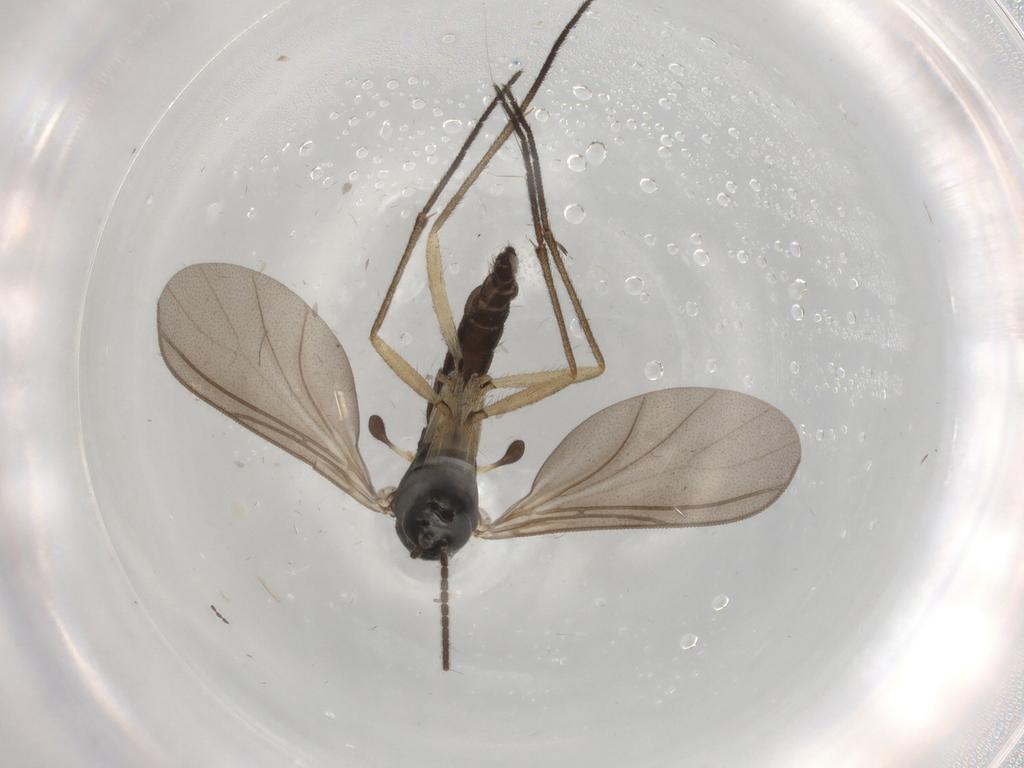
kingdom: Animalia
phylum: Arthropoda
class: Insecta
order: Diptera
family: Sciaridae
